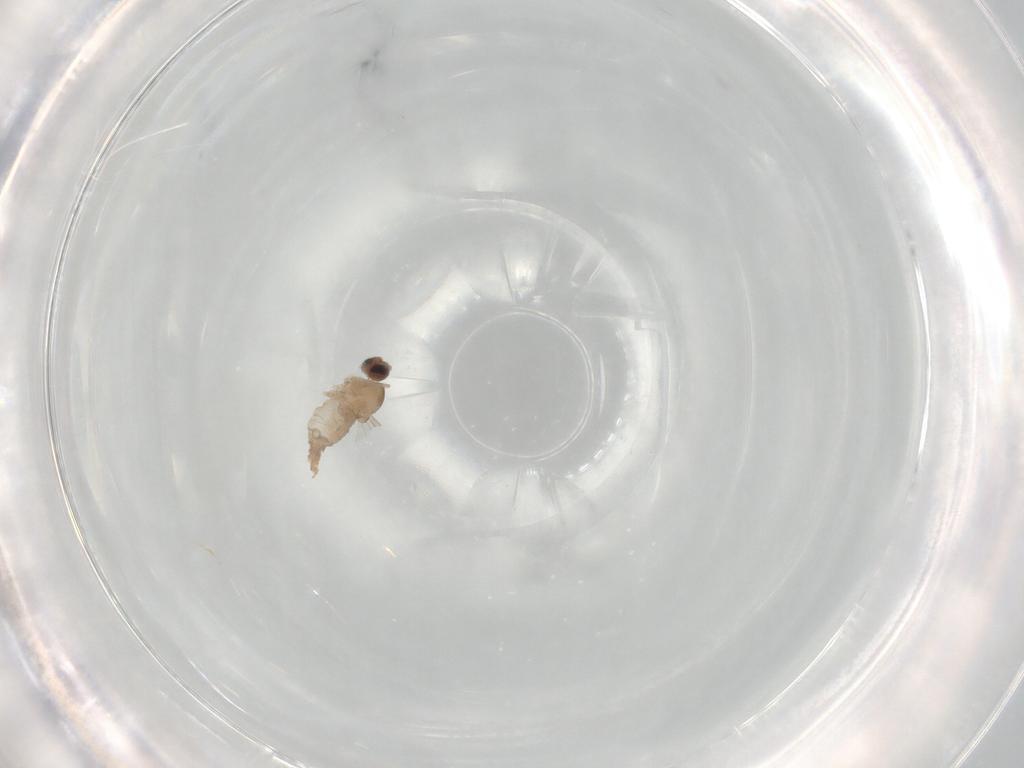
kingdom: Animalia
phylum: Arthropoda
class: Insecta
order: Diptera
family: Cecidomyiidae
